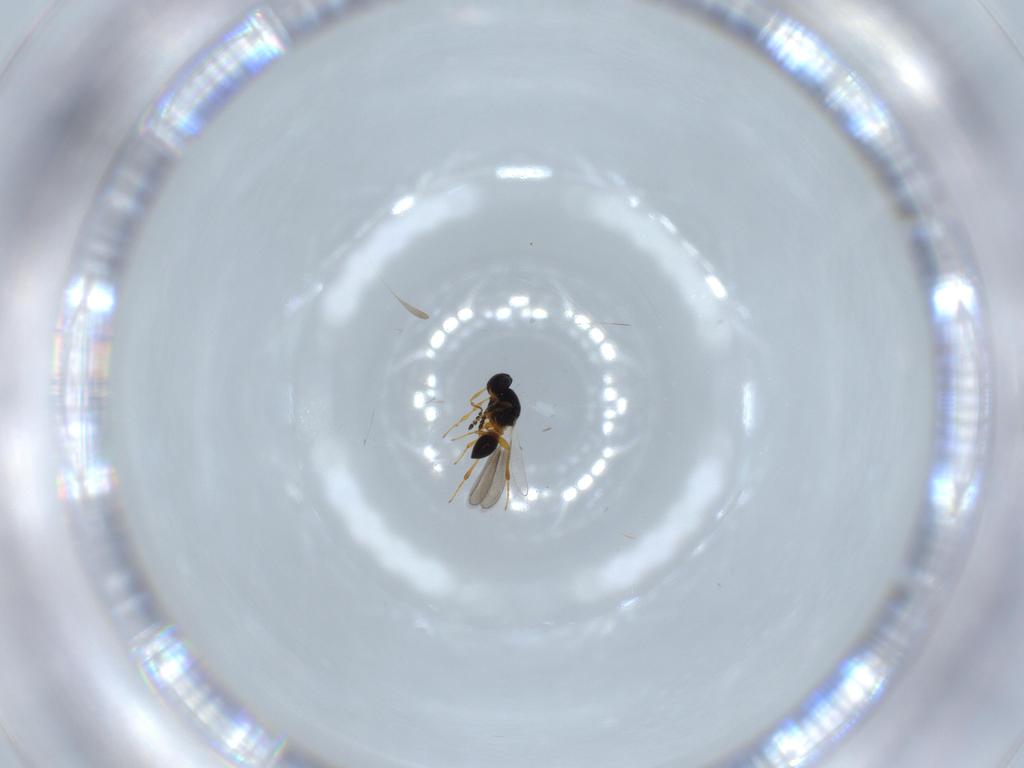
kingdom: Animalia
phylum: Arthropoda
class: Insecta
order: Hymenoptera
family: Platygastridae
